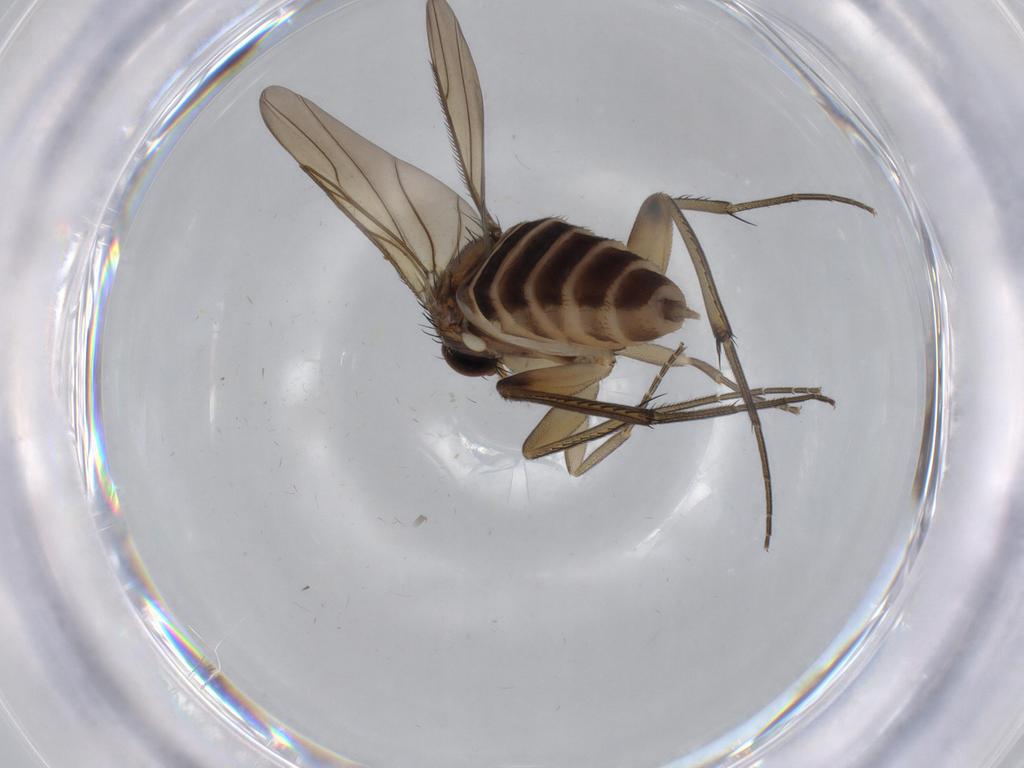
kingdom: Animalia
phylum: Arthropoda
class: Insecta
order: Diptera
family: Phoridae
